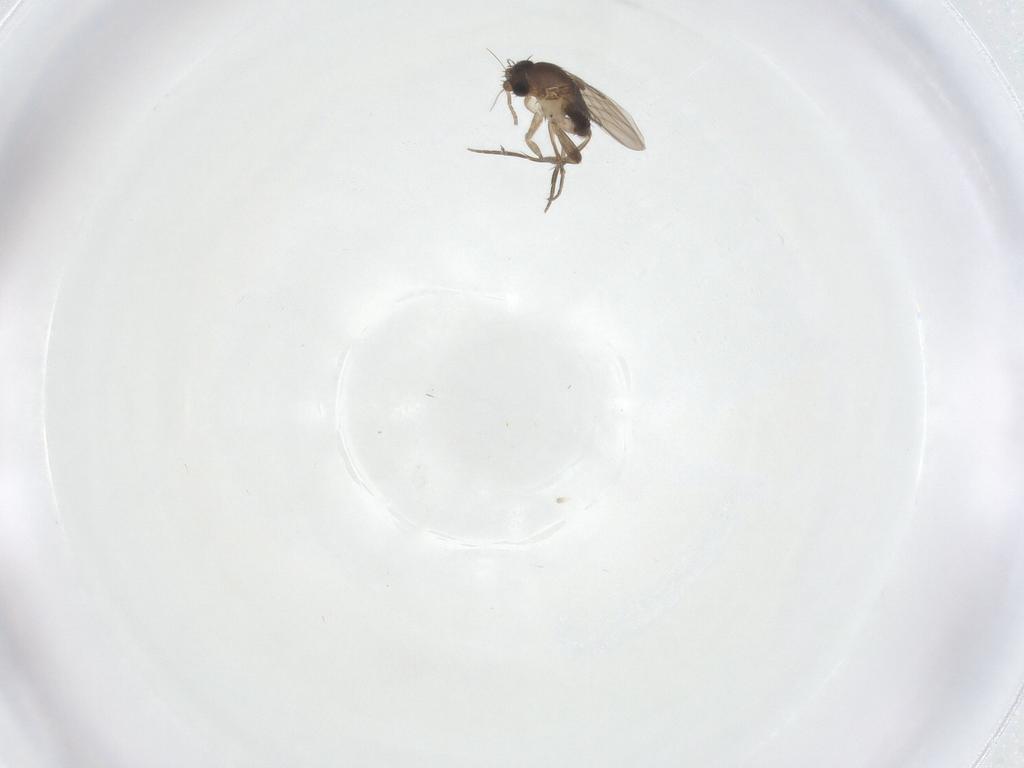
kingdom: Animalia
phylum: Arthropoda
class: Insecta
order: Diptera
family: Phoridae
